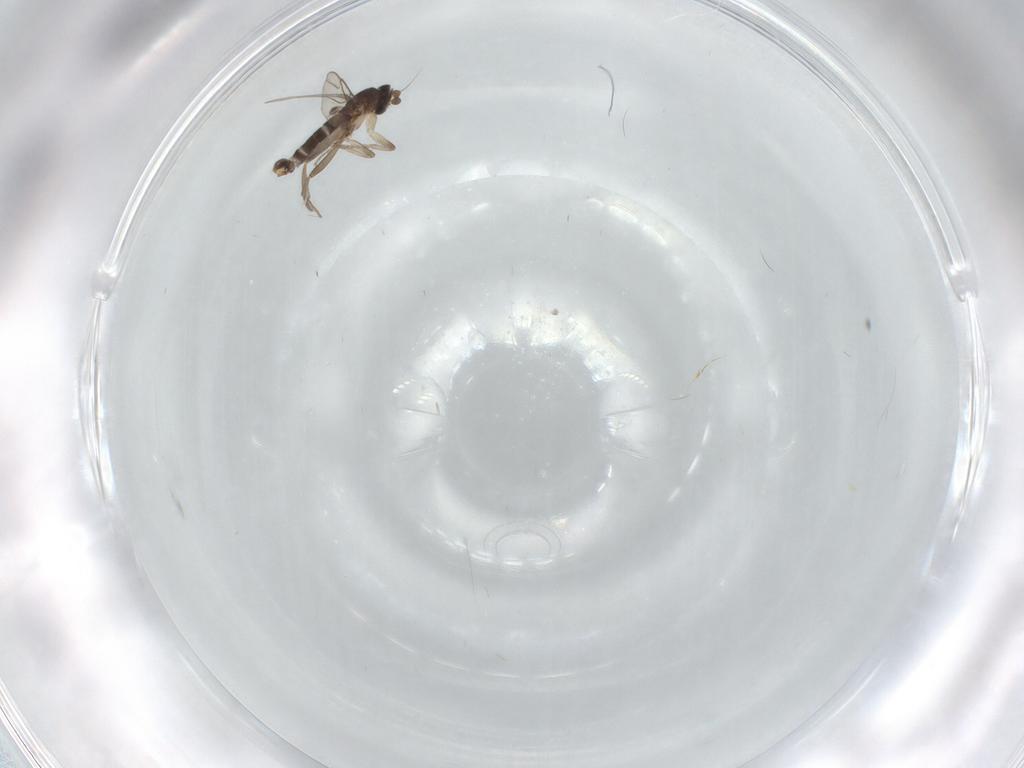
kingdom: Animalia
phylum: Arthropoda
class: Insecta
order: Diptera
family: Phoridae
